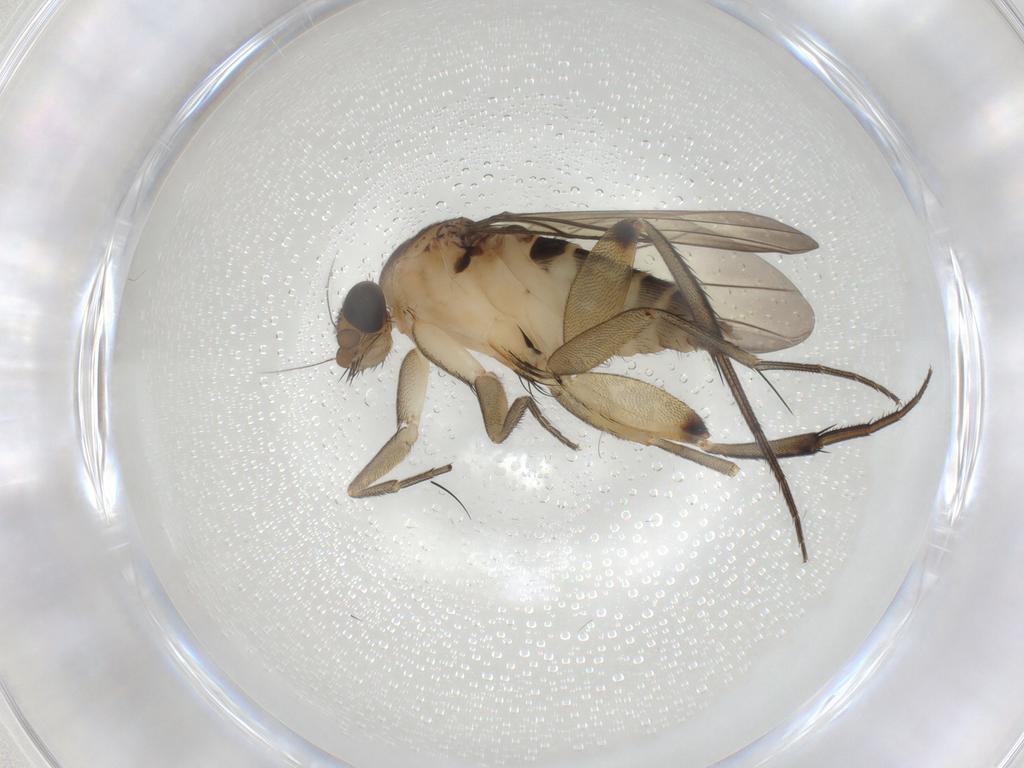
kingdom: Animalia
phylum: Arthropoda
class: Insecta
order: Diptera
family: Phoridae
